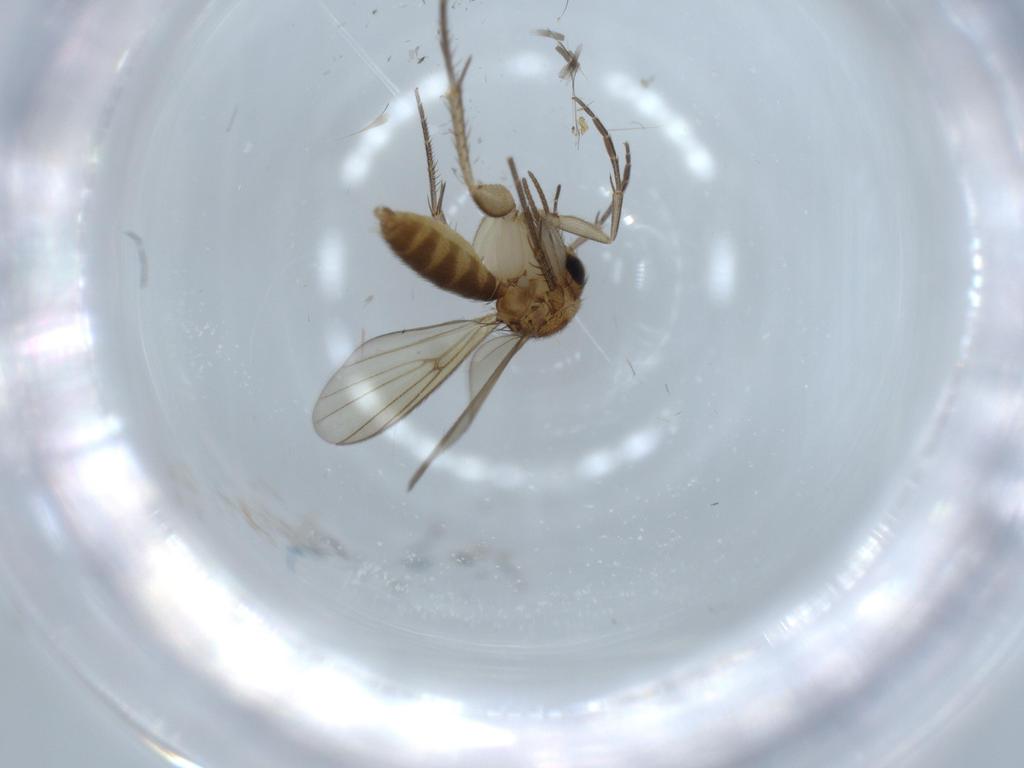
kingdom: Animalia
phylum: Arthropoda
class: Insecta
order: Diptera
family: Mycetophilidae
